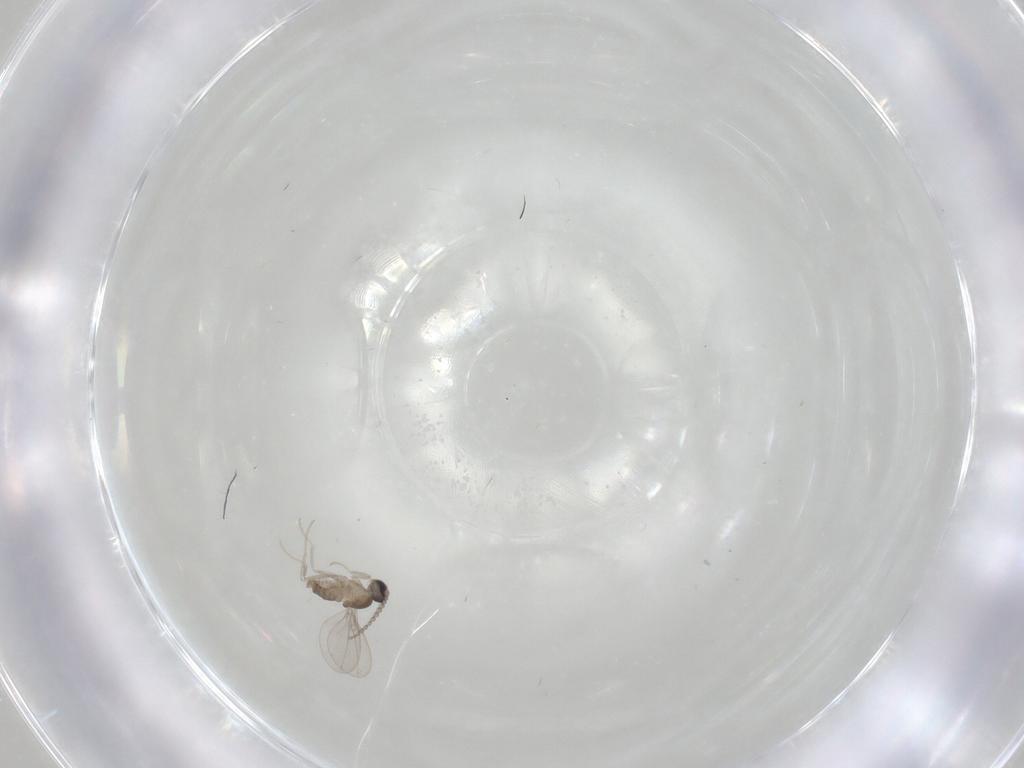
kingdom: Animalia
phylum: Arthropoda
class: Insecta
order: Diptera
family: Cecidomyiidae
